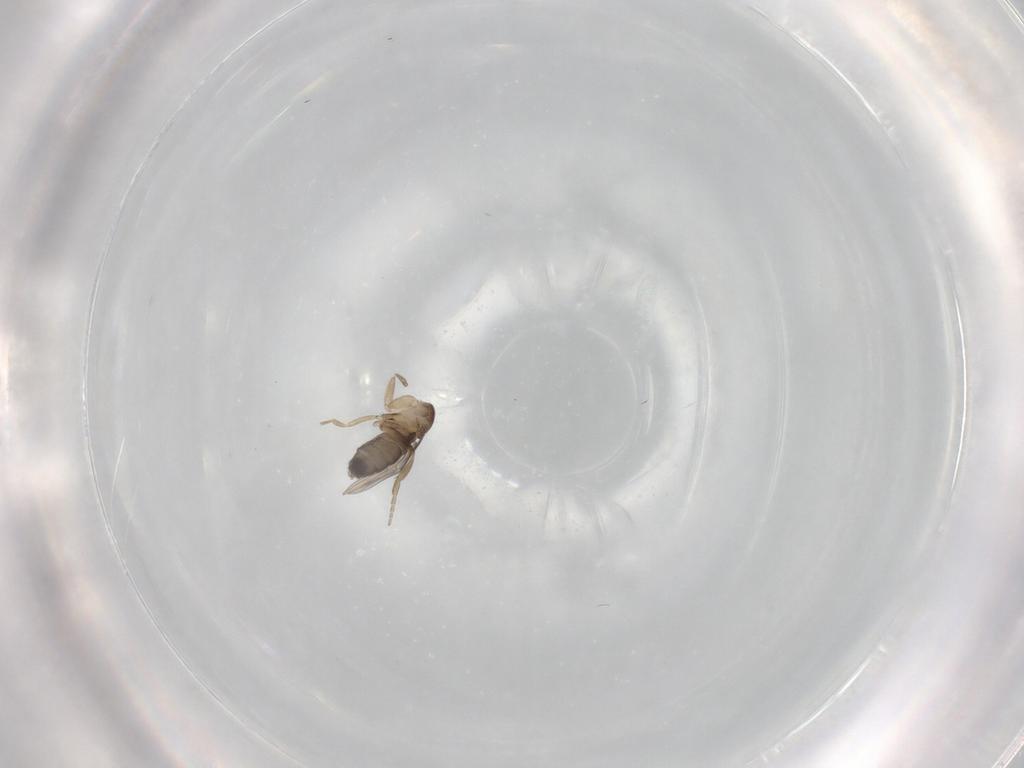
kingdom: Animalia
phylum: Arthropoda
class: Insecta
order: Diptera
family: Phoridae
